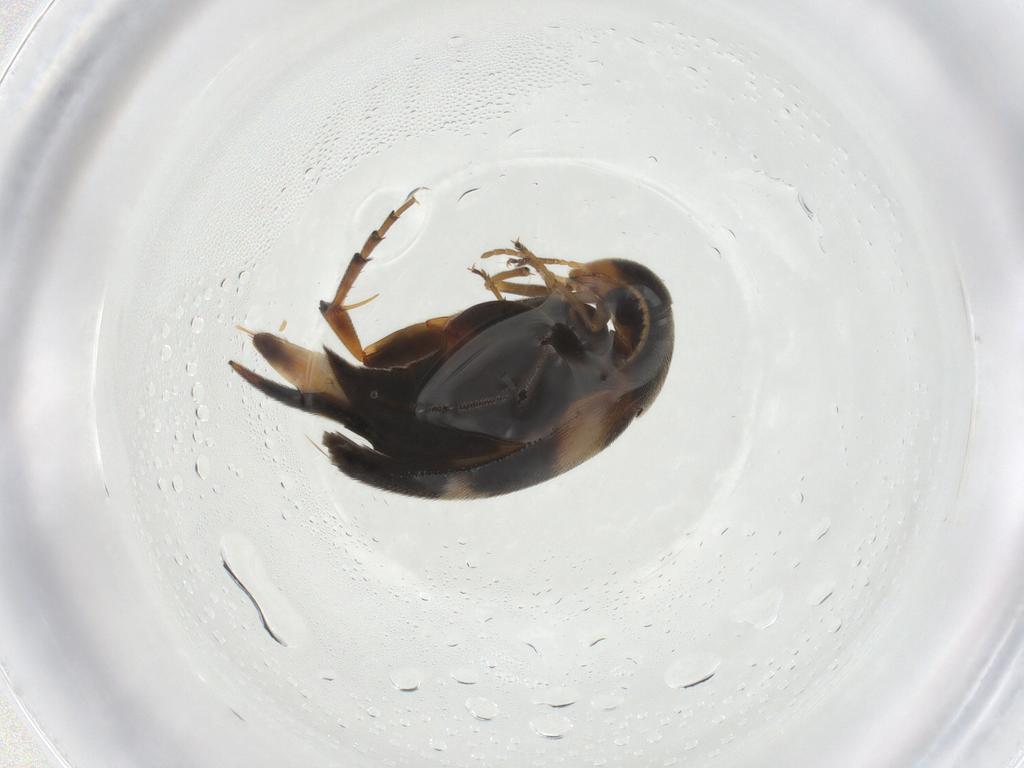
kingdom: Animalia
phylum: Arthropoda
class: Insecta
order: Coleoptera
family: Mordellidae
